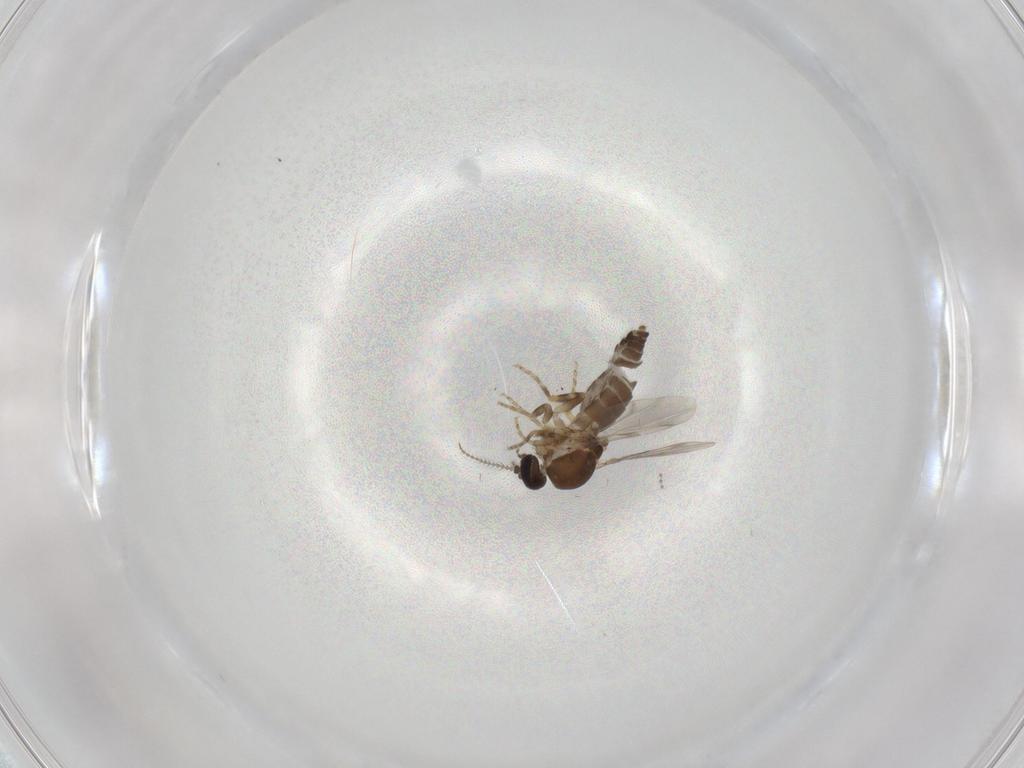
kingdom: Animalia
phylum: Arthropoda
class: Insecta
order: Diptera
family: Ceratopogonidae
